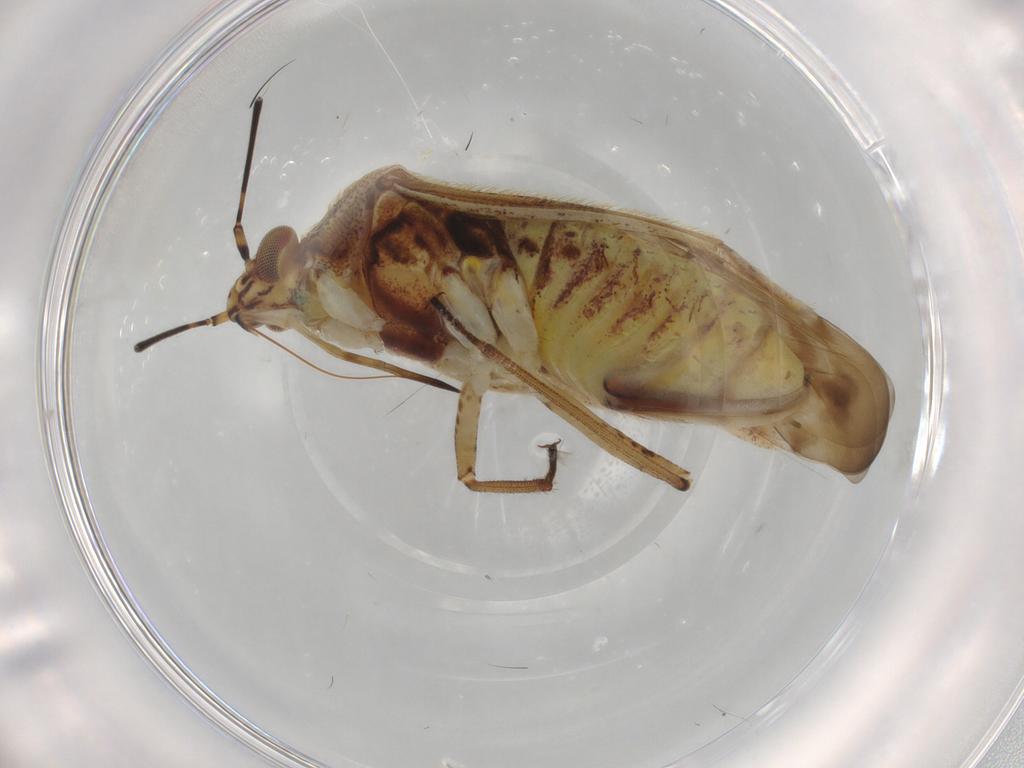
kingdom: Animalia
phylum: Arthropoda
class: Insecta
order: Hemiptera
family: Miridae
